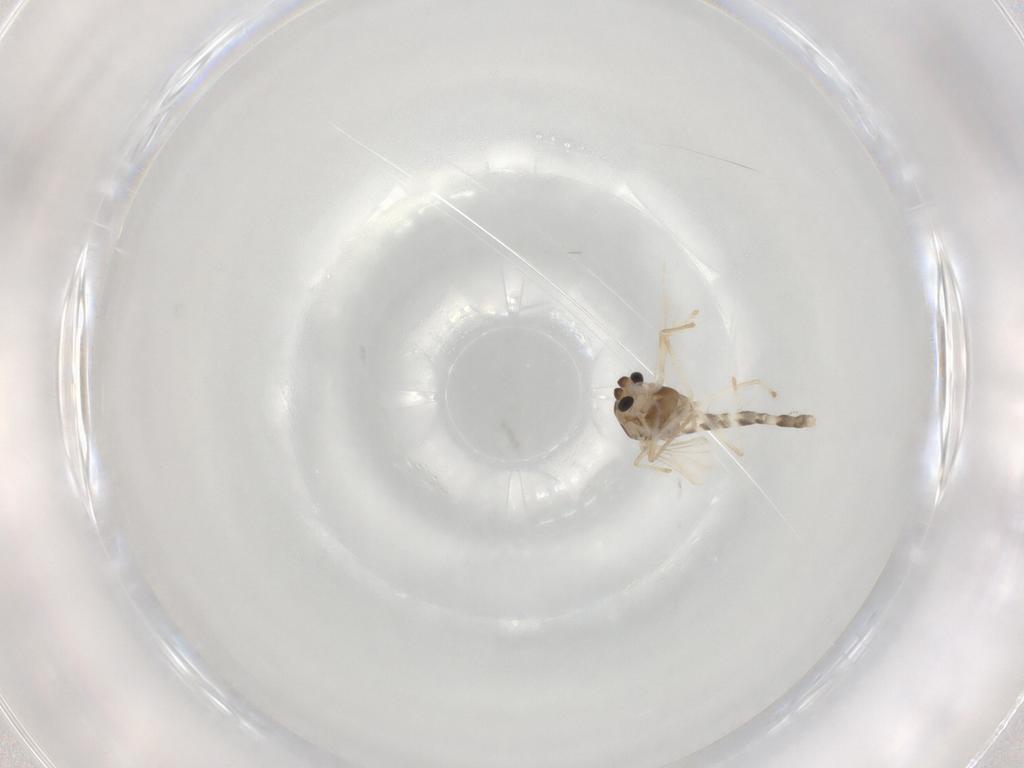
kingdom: Animalia
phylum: Arthropoda
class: Insecta
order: Diptera
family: Chironomidae
